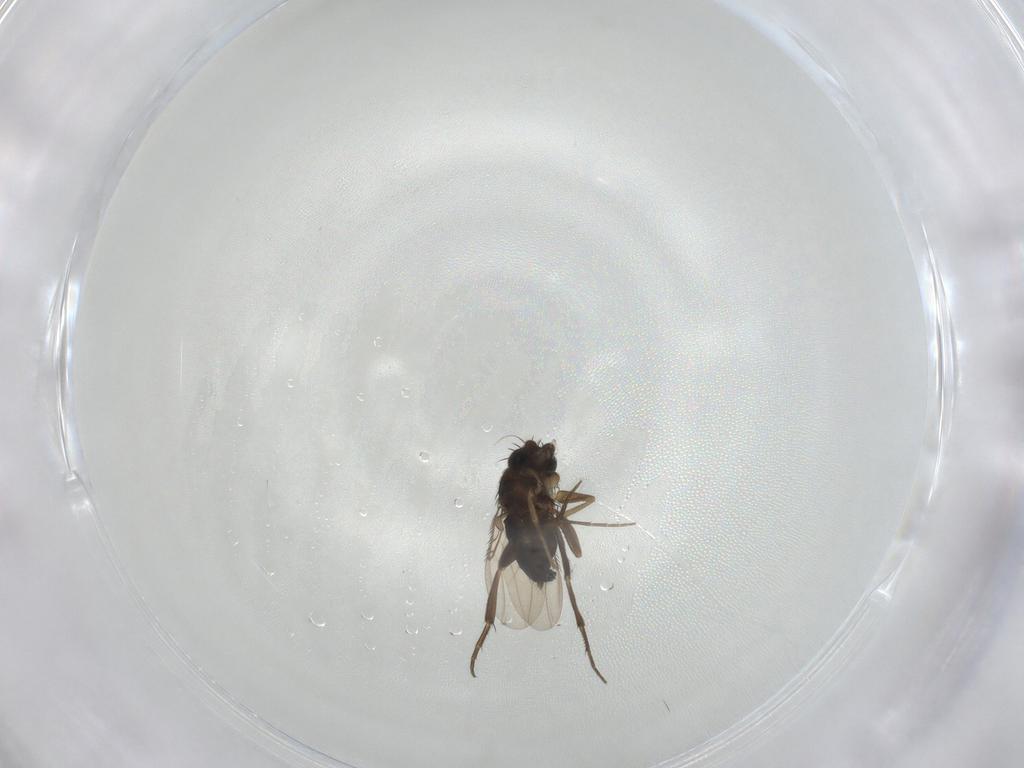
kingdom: Animalia
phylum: Arthropoda
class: Insecta
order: Diptera
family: Phoridae
